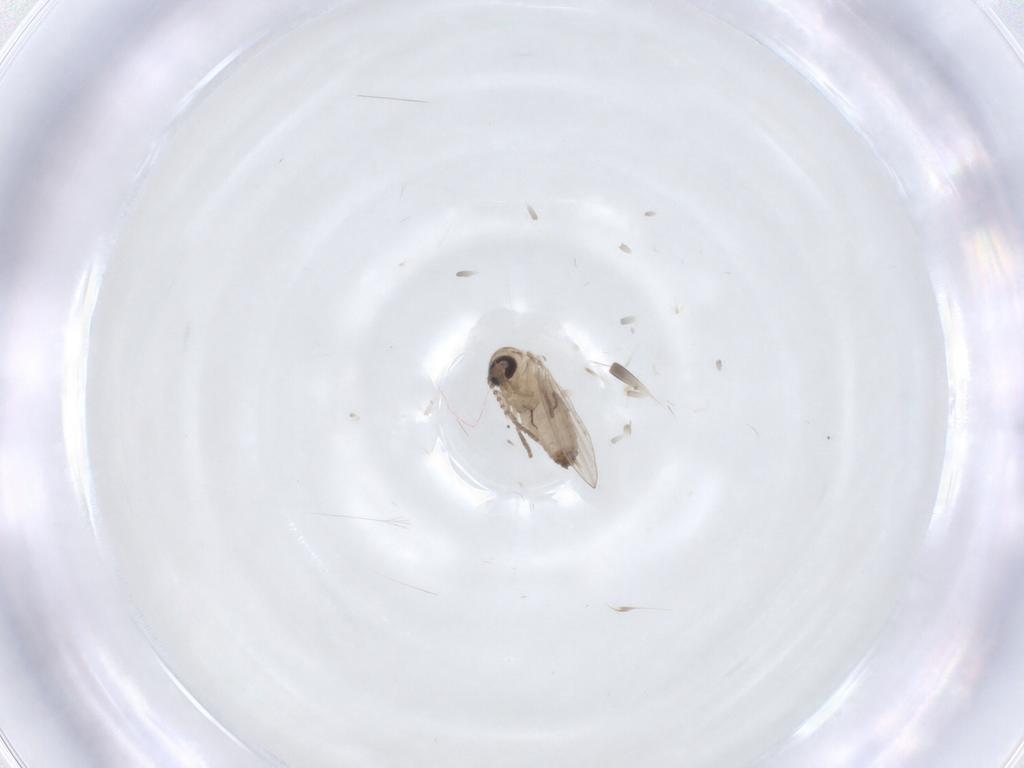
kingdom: Animalia
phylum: Arthropoda
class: Insecta
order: Diptera
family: Psychodidae
